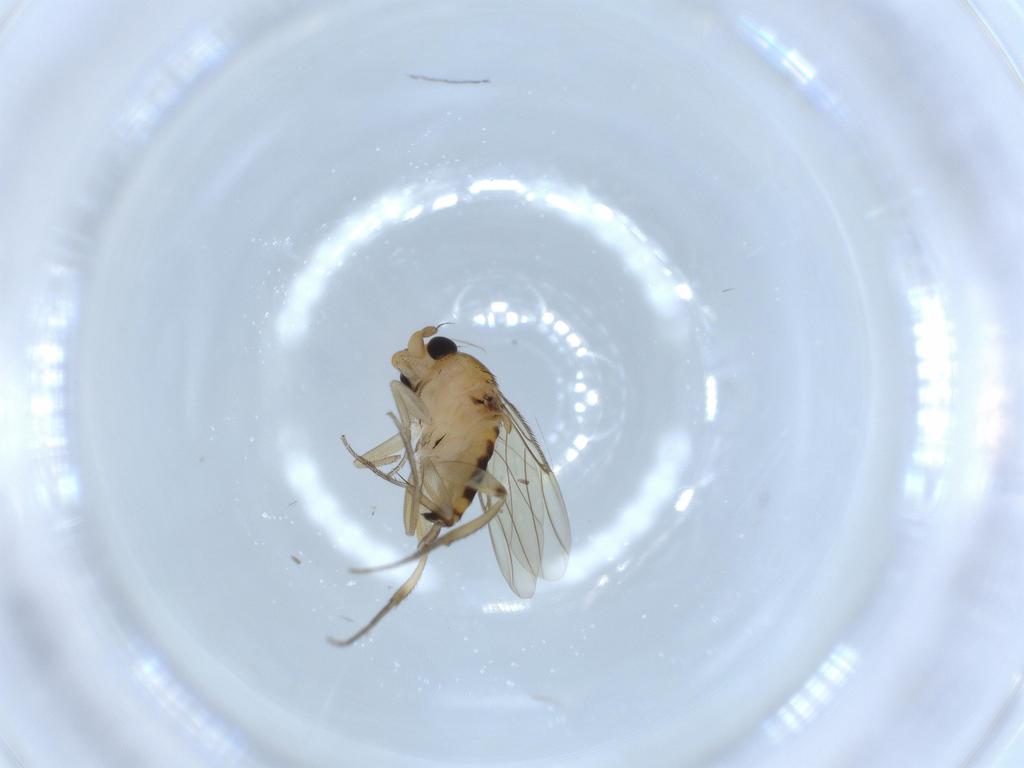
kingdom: Animalia
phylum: Arthropoda
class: Insecta
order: Diptera
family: Phoridae
